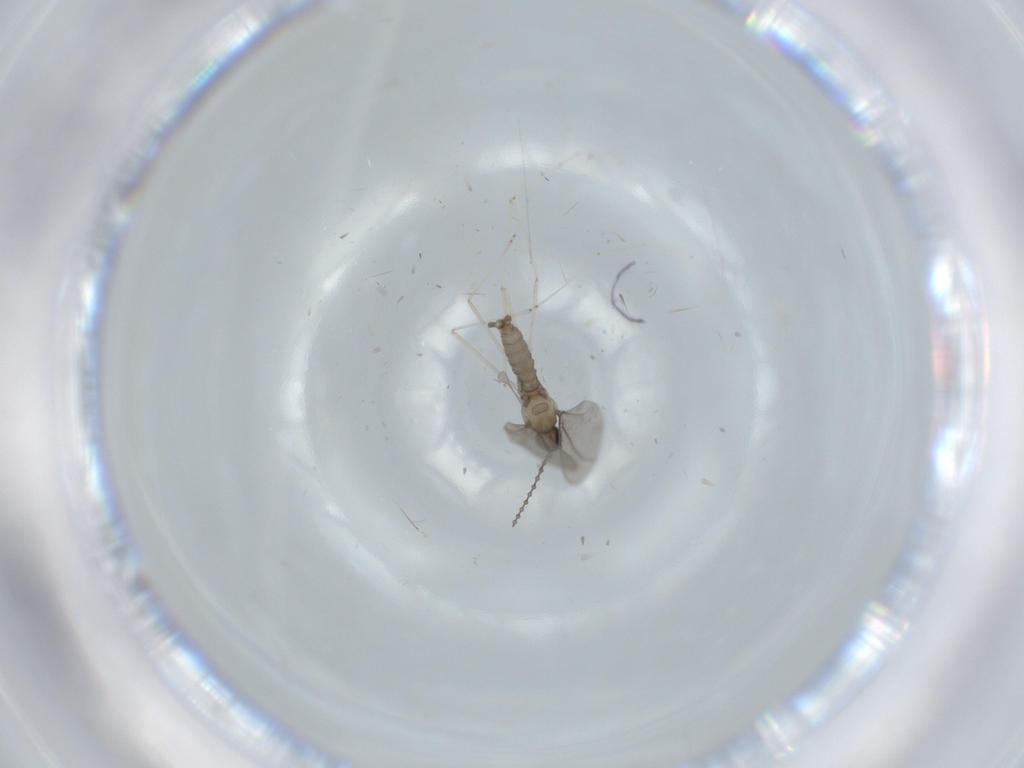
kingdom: Animalia
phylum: Arthropoda
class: Insecta
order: Diptera
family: Cecidomyiidae
